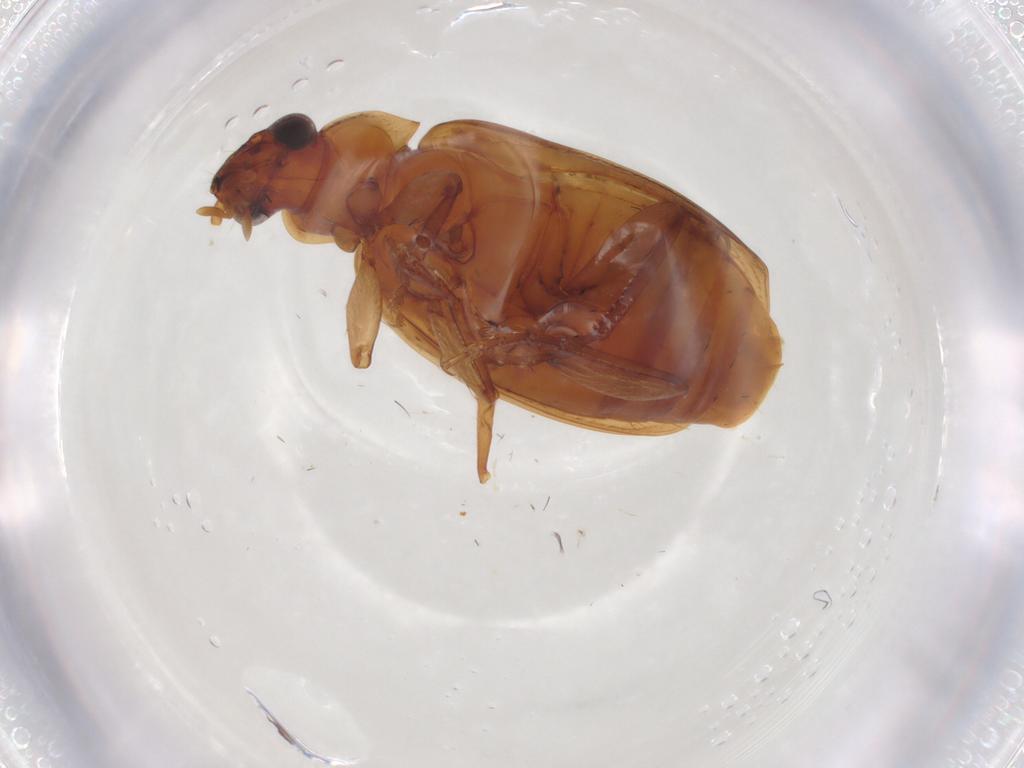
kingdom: Animalia
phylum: Arthropoda
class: Insecta
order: Coleoptera
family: Carabidae
